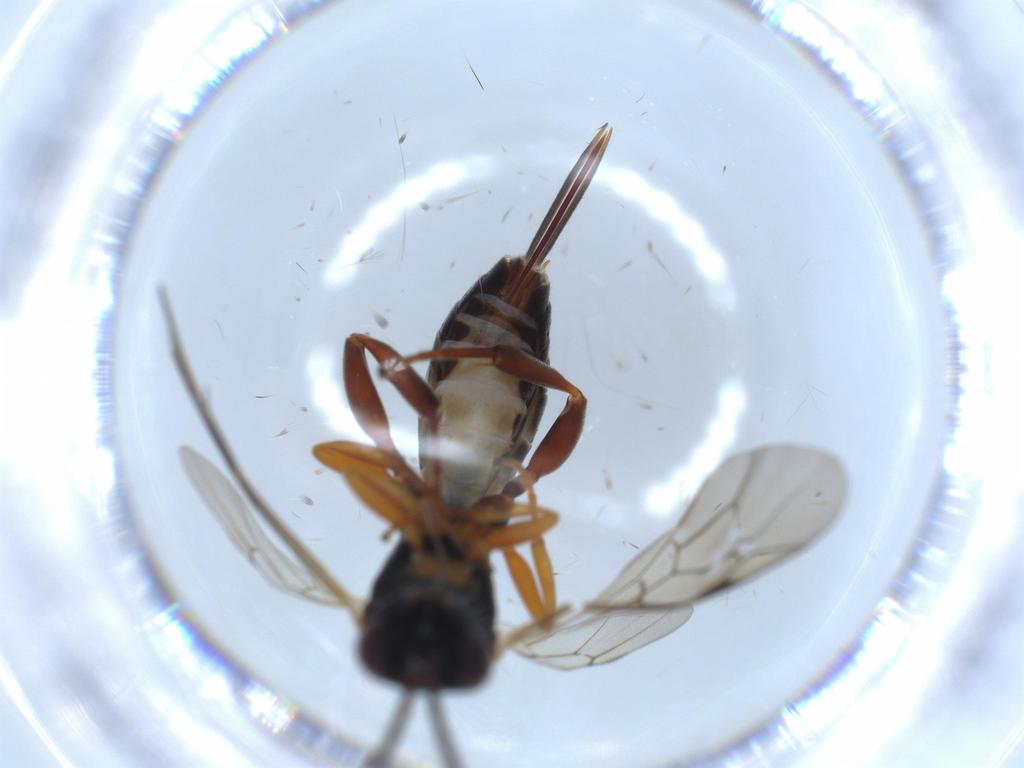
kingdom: Animalia
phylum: Arthropoda
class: Insecta
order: Hymenoptera
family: Ichneumonidae
